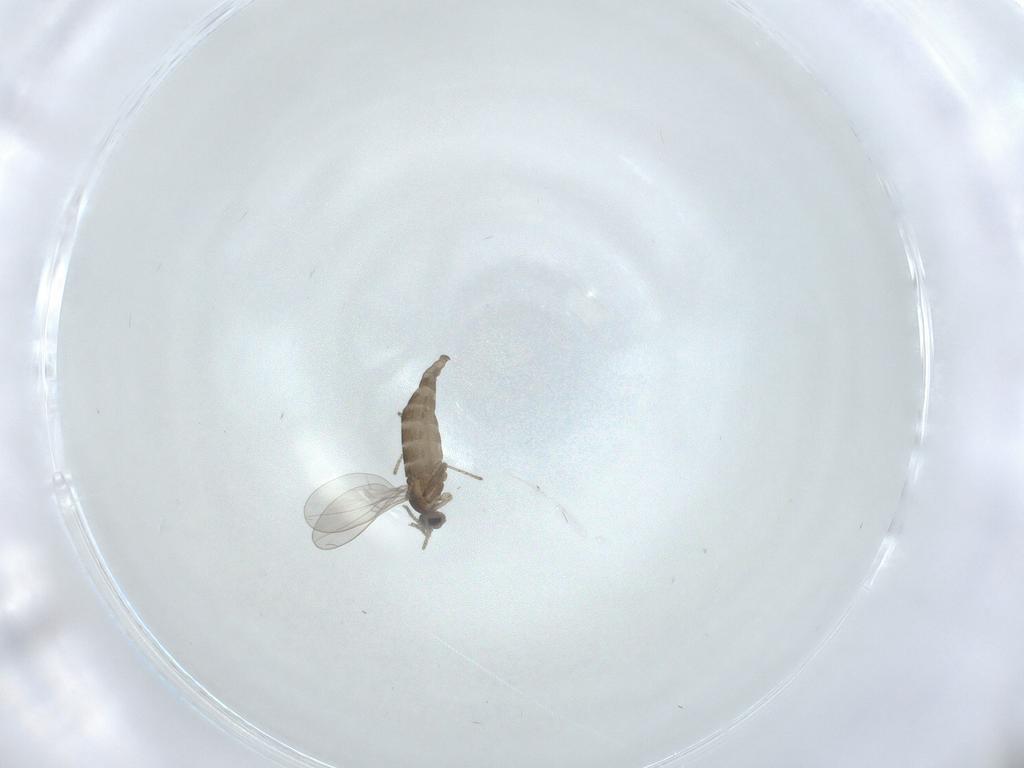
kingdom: Animalia
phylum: Arthropoda
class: Insecta
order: Diptera
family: Cecidomyiidae
